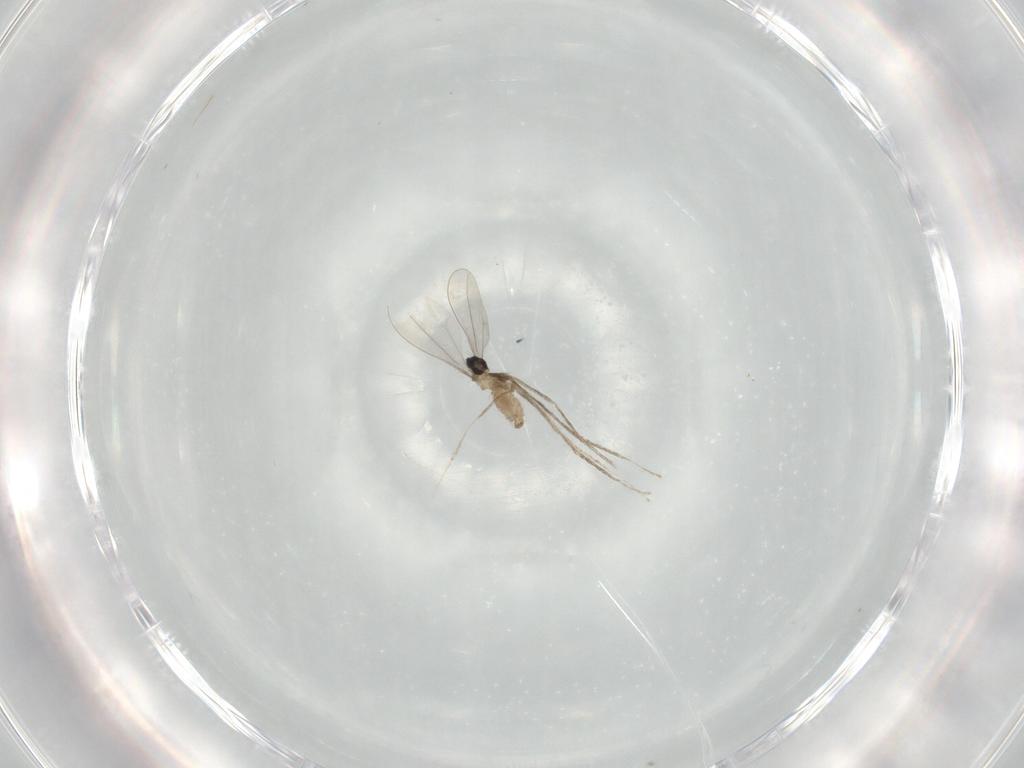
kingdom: Animalia
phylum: Arthropoda
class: Insecta
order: Diptera
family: Cecidomyiidae
